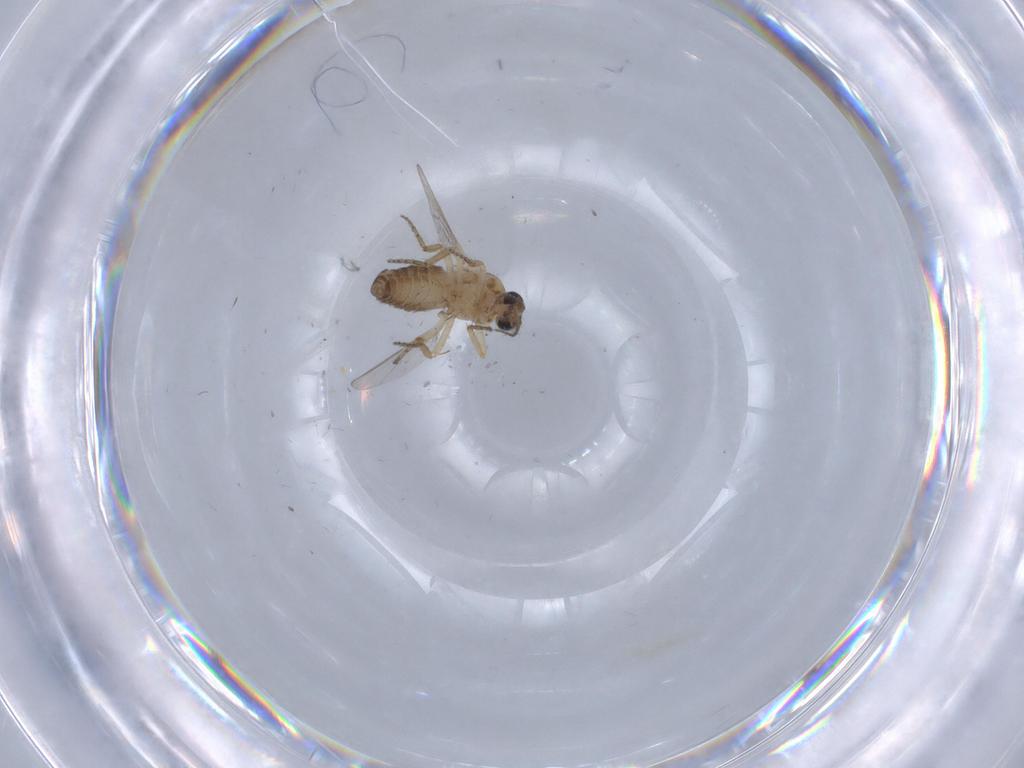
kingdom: Animalia
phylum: Arthropoda
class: Insecta
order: Diptera
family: Ceratopogonidae
